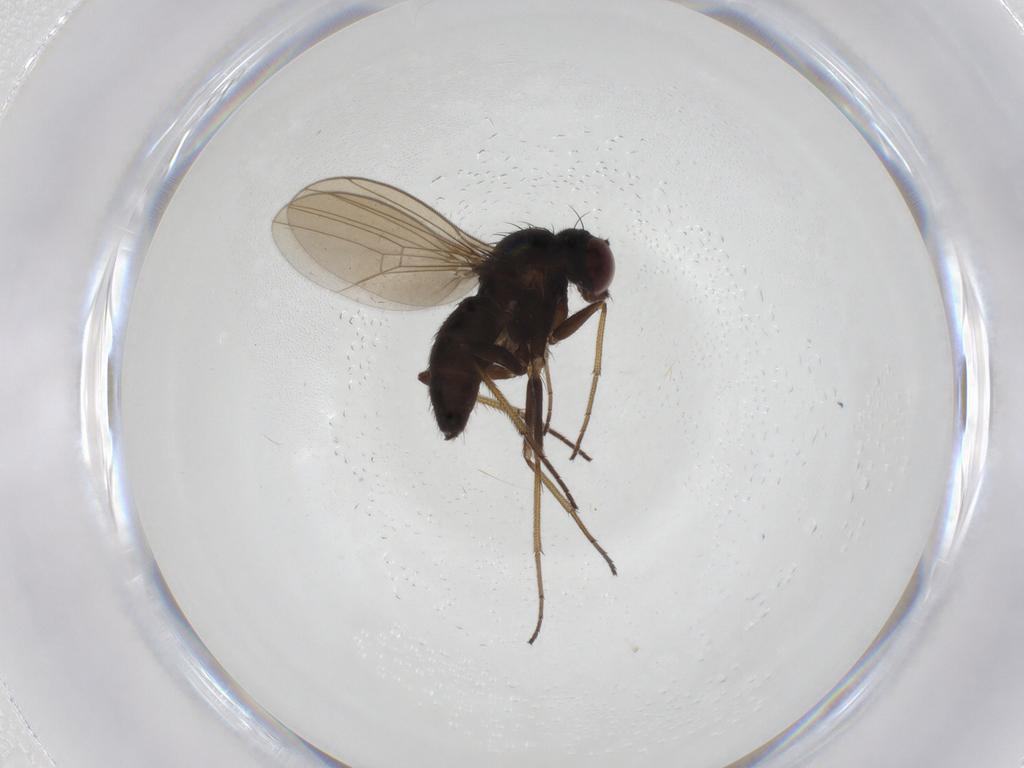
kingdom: Animalia
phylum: Arthropoda
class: Insecta
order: Diptera
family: Dolichopodidae
